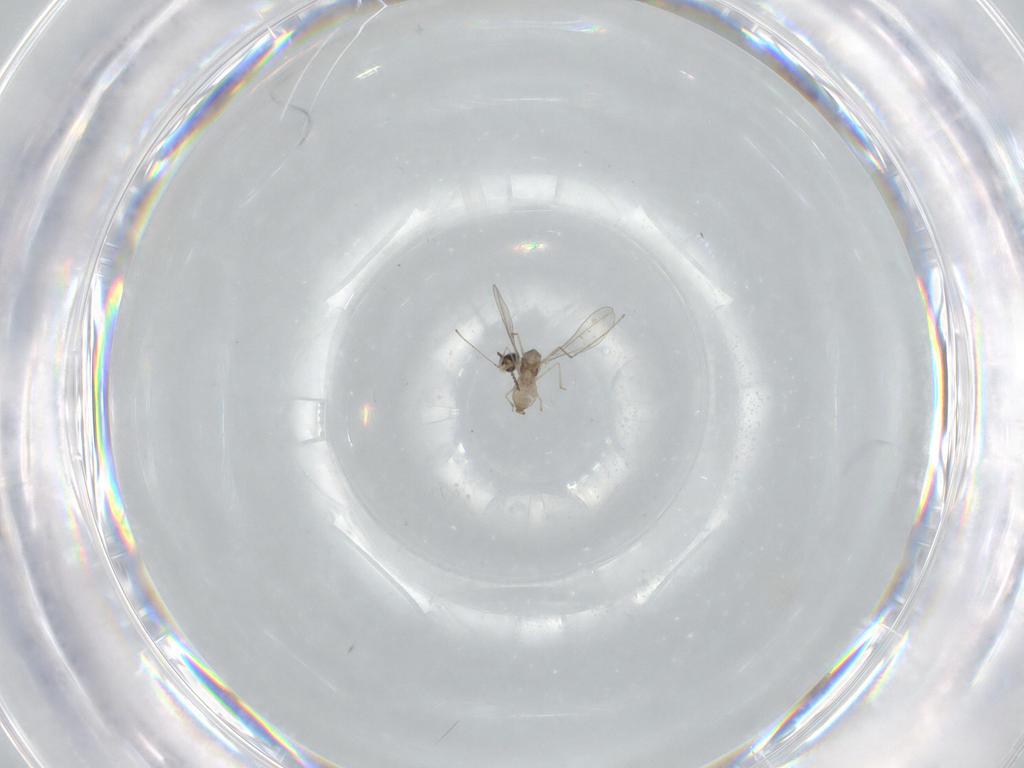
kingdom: Animalia
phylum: Arthropoda
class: Insecta
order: Diptera
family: Cecidomyiidae
